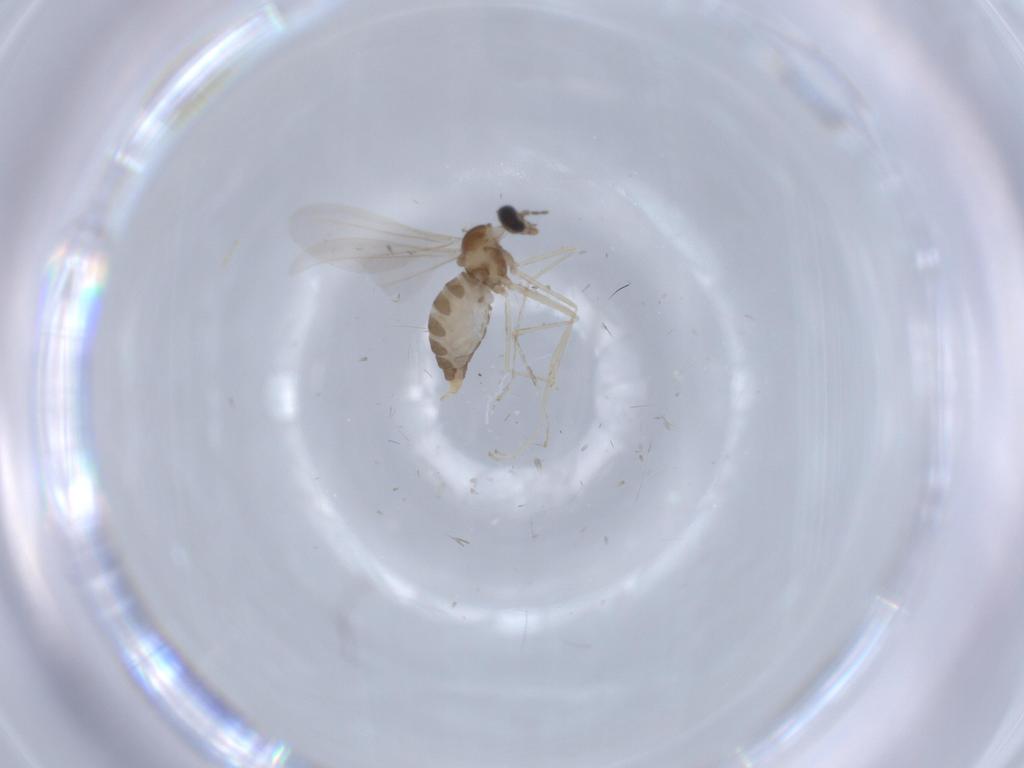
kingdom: Animalia
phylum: Arthropoda
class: Insecta
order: Diptera
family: Cecidomyiidae
